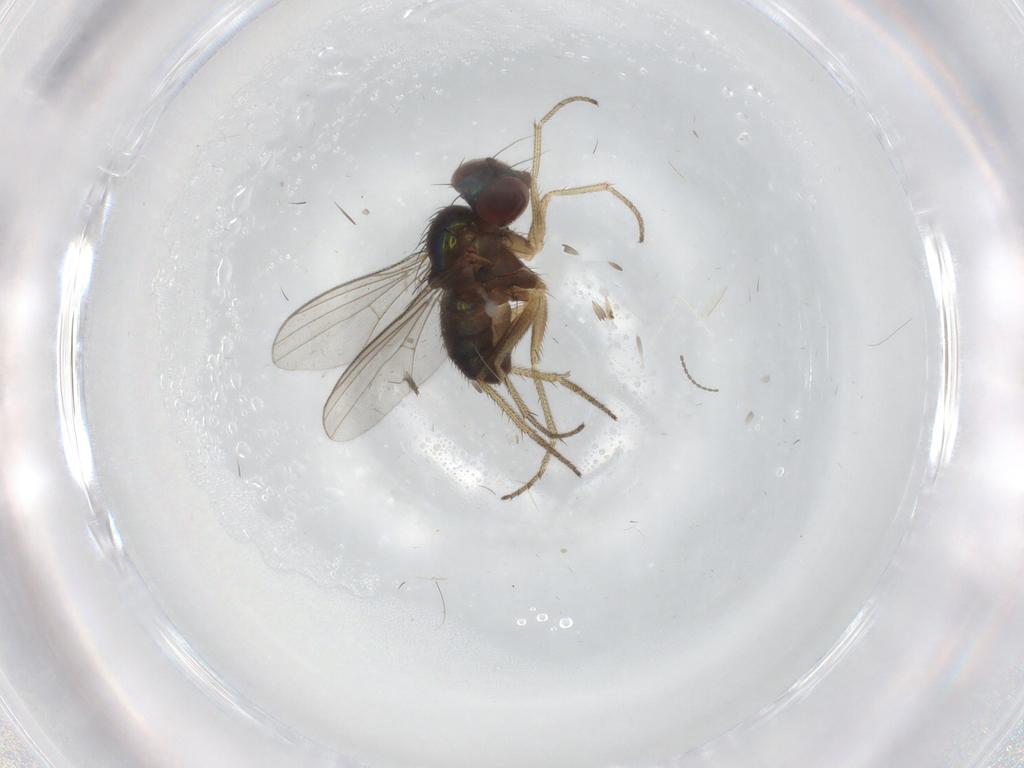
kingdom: Animalia
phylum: Arthropoda
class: Insecta
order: Diptera
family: Dolichopodidae
